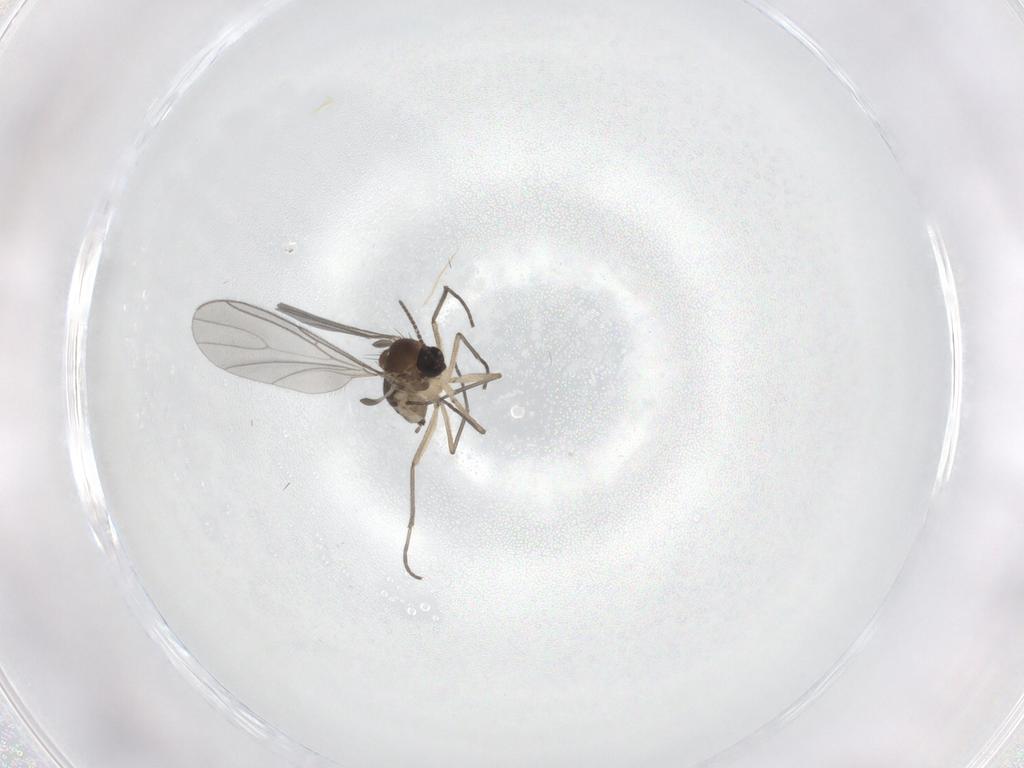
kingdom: Animalia
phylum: Arthropoda
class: Insecta
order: Diptera
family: Sciaridae
